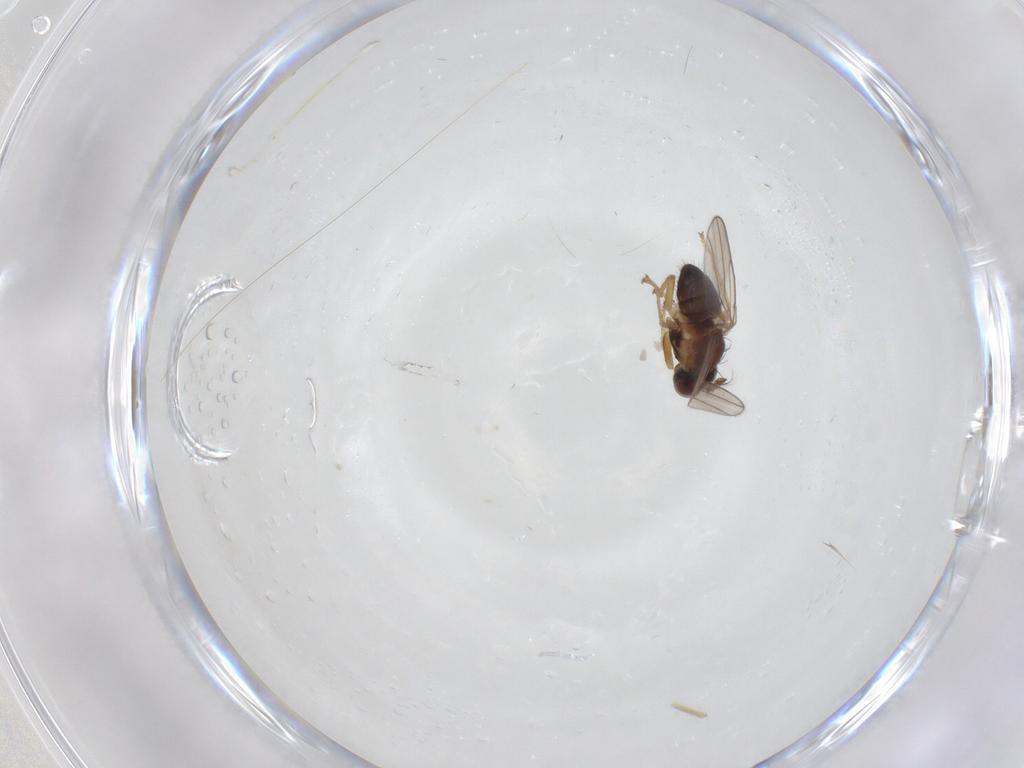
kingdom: Animalia
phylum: Arthropoda
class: Insecta
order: Diptera
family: Ephydridae
